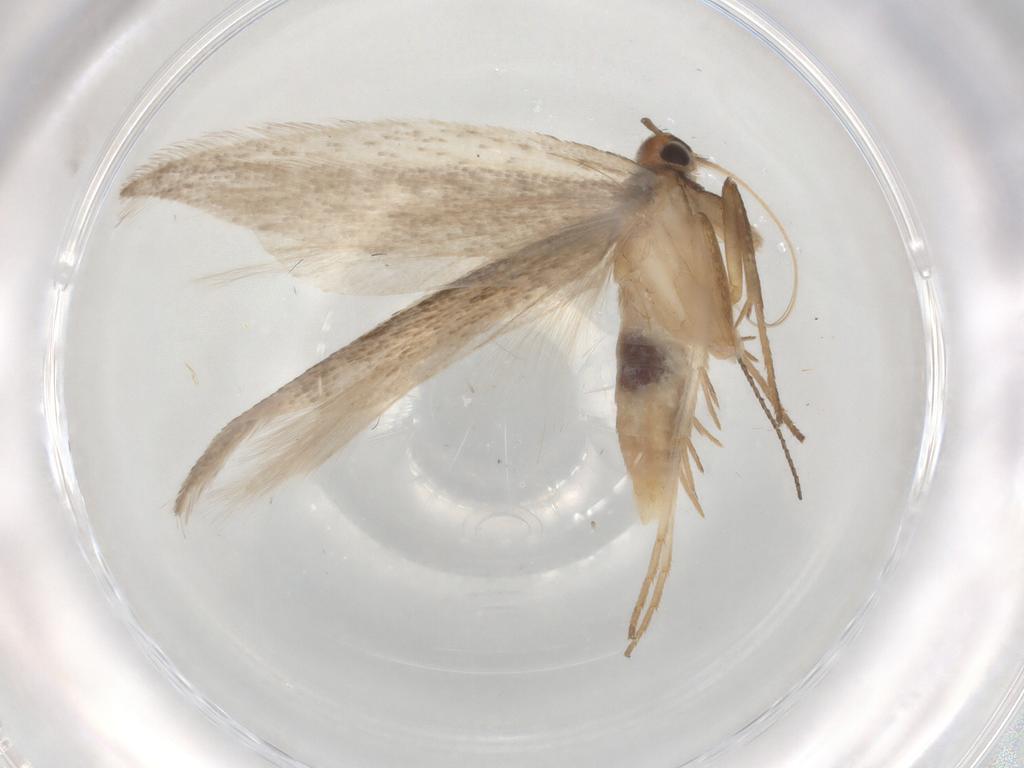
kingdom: Animalia
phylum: Arthropoda
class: Insecta
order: Lepidoptera
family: Gelechiidae
